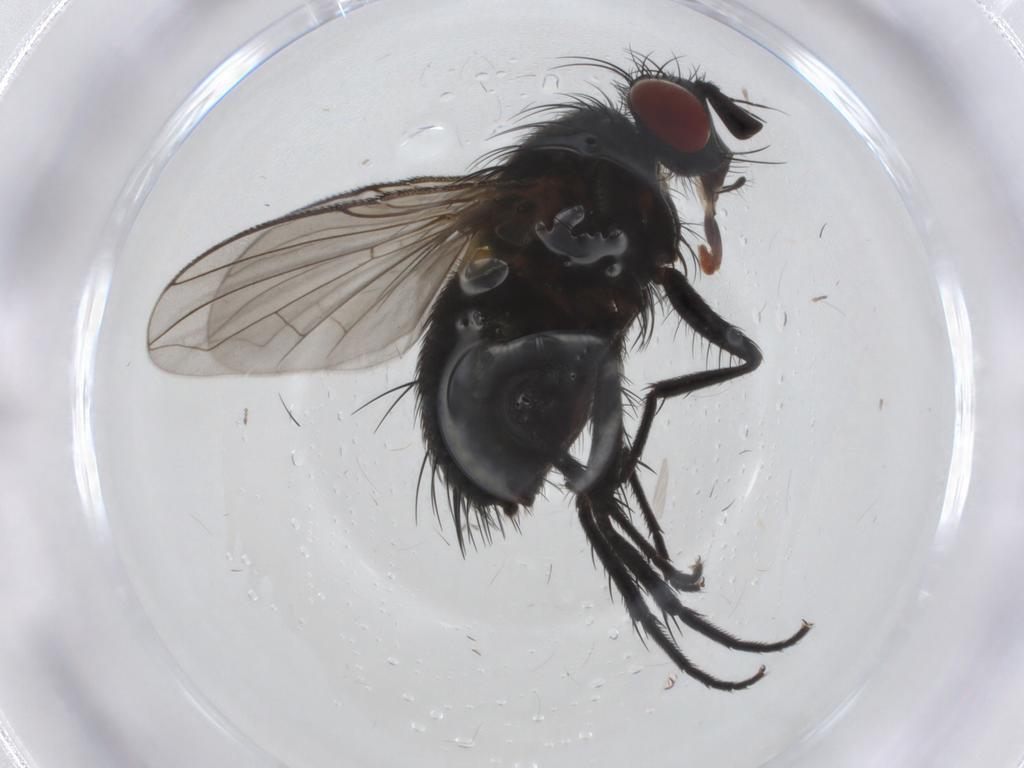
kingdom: Animalia
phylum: Arthropoda
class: Insecta
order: Diptera
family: Tachinidae
